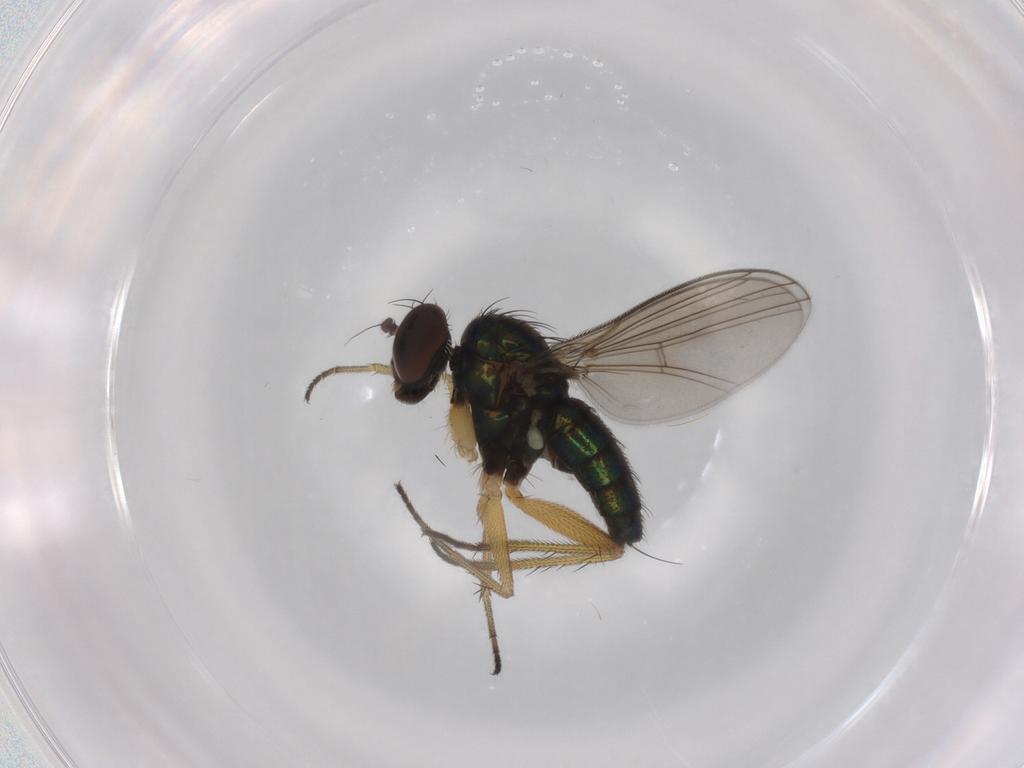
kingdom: Animalia
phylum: Arthropoda
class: Insecta
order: Diptera
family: Dolichopodidae
